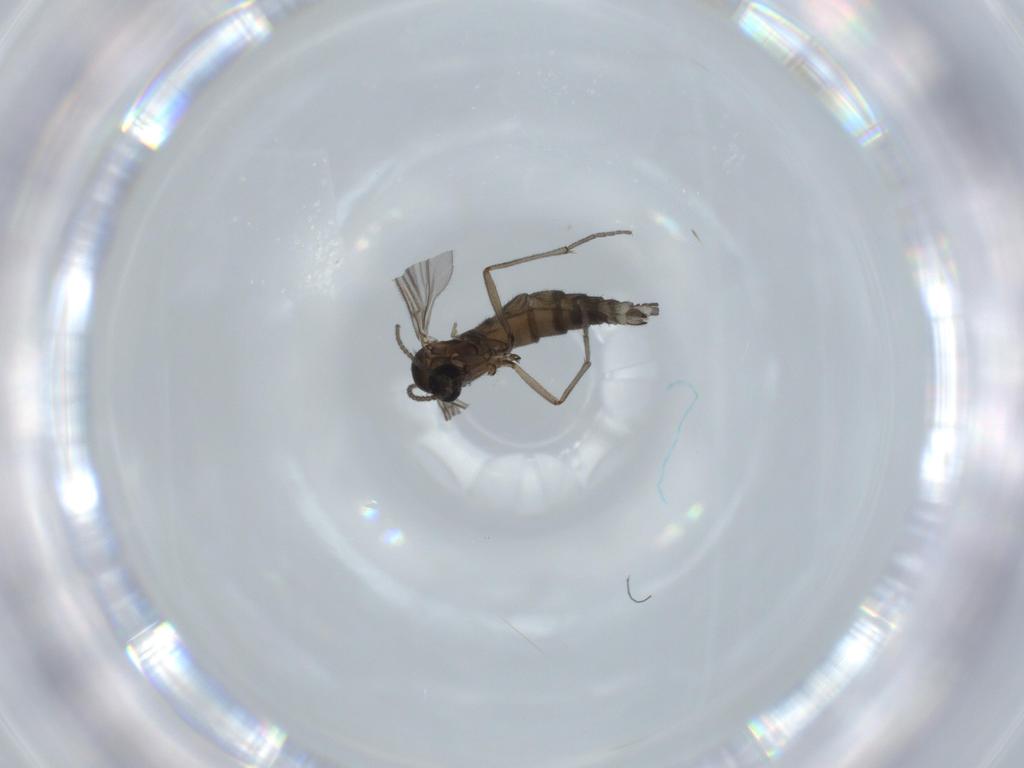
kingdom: Animalia
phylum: Arthropoda
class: Insecta
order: Diptera
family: Sciaridae
